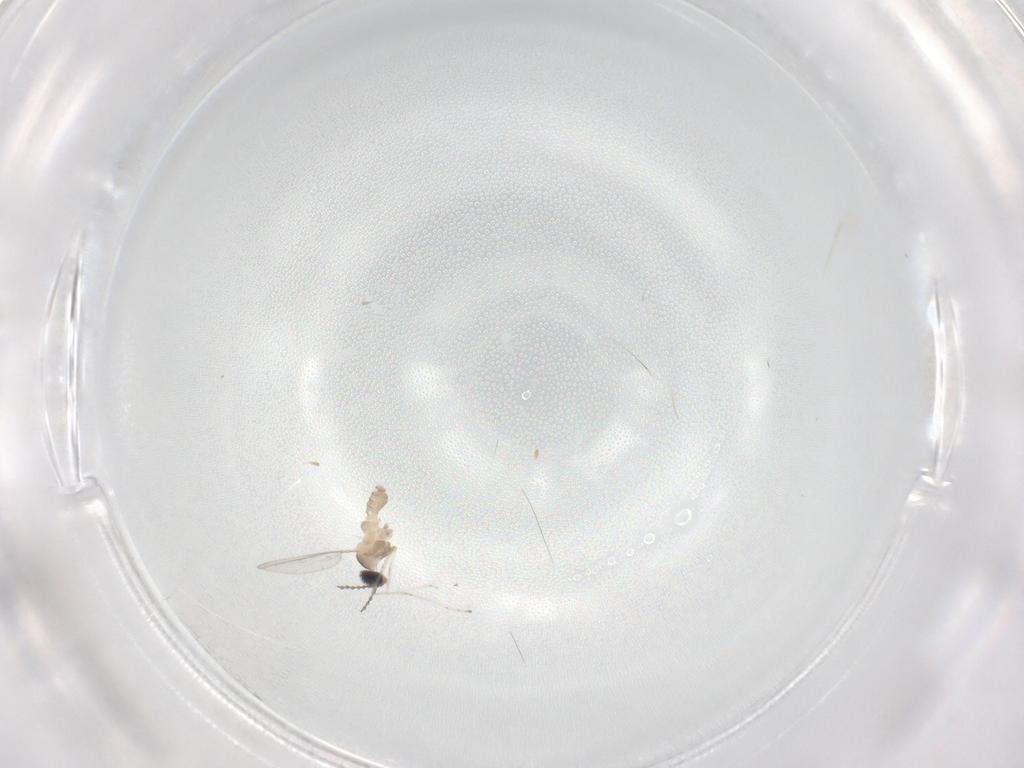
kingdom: Animalia
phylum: Arthropoda
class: Insecta
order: Diptera
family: Ceratopogonidae
